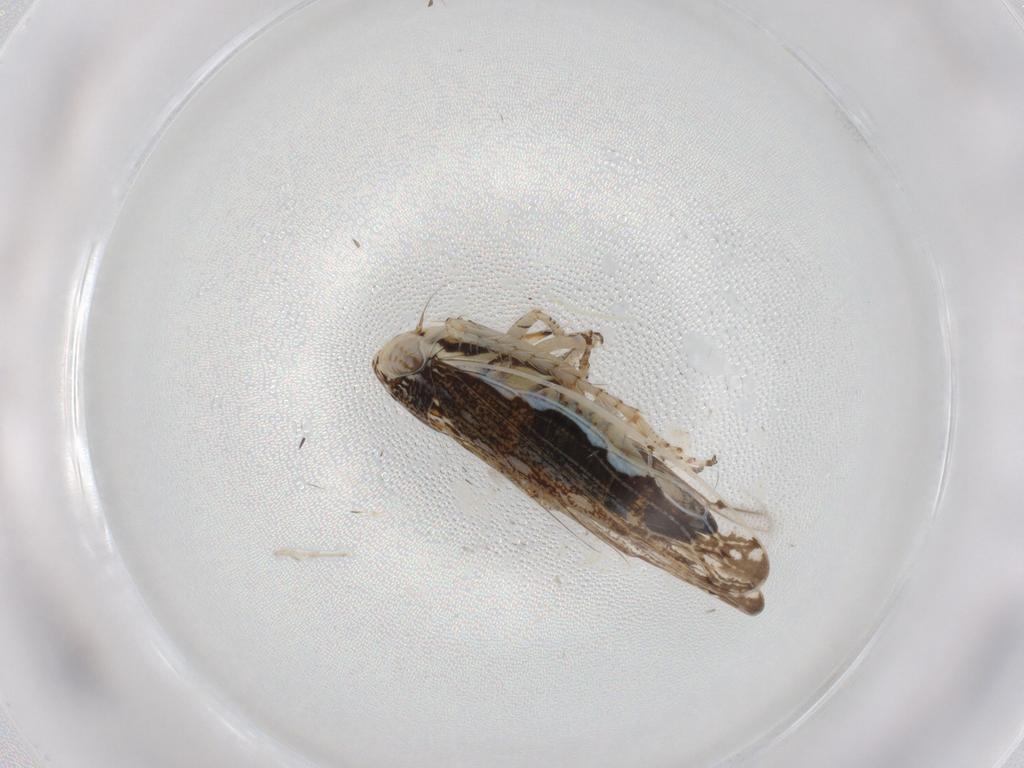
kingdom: Animalia
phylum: Arthropoda
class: Insecta
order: Hemiptera
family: Cicadellidae
